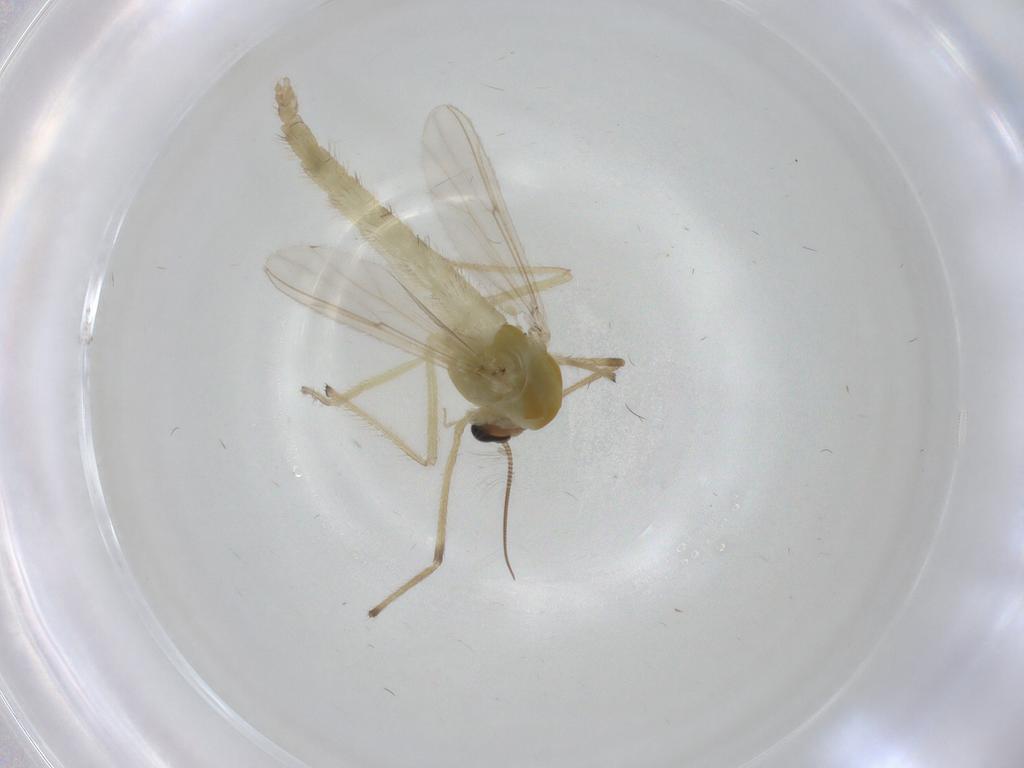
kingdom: Animalia
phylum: Arthropoda
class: Insecta
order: Diptera
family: Chironomidae
